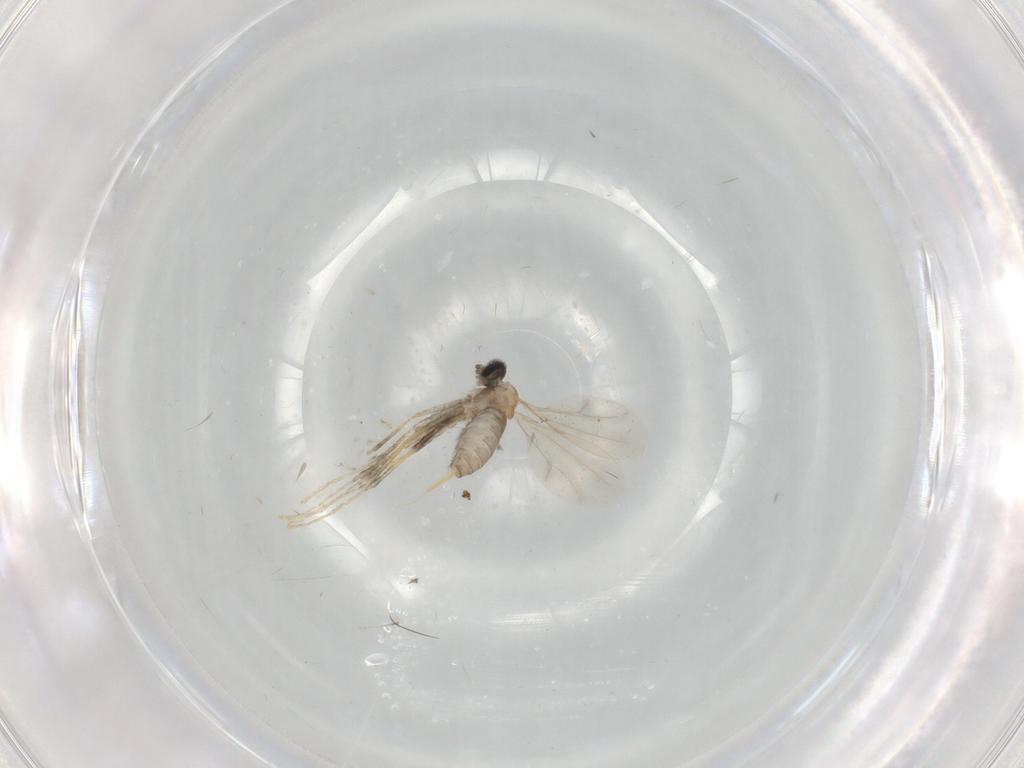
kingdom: Animalia
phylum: Arthropoda
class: Insecta
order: Diptera
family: Cecidomyiidae
